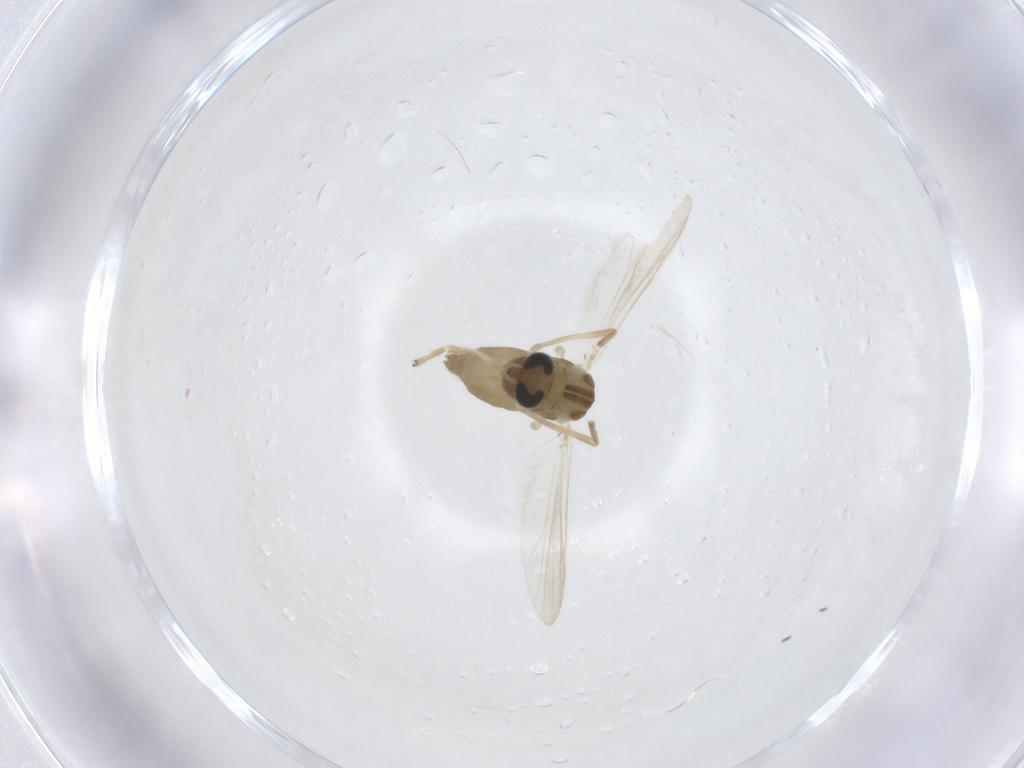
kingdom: Animalia
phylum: Arthropoda
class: Insecta
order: Diptera
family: Chironomidae
